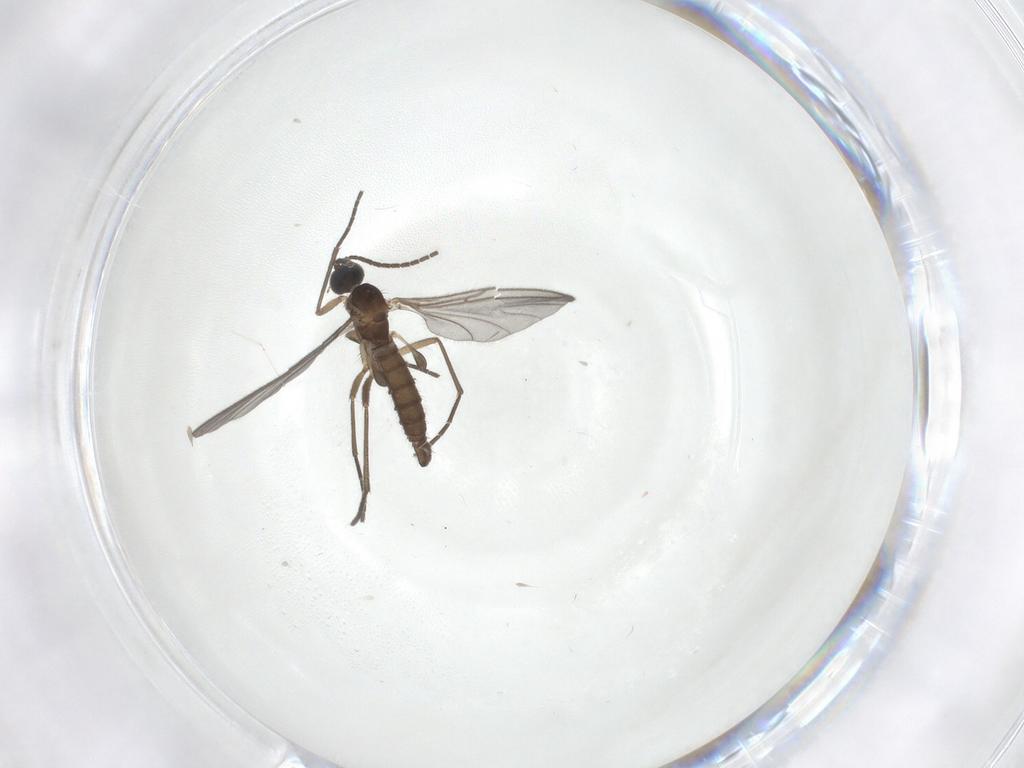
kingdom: Animalia
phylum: Arthropoda
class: Insecta
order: Diptera
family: Sciaridae
